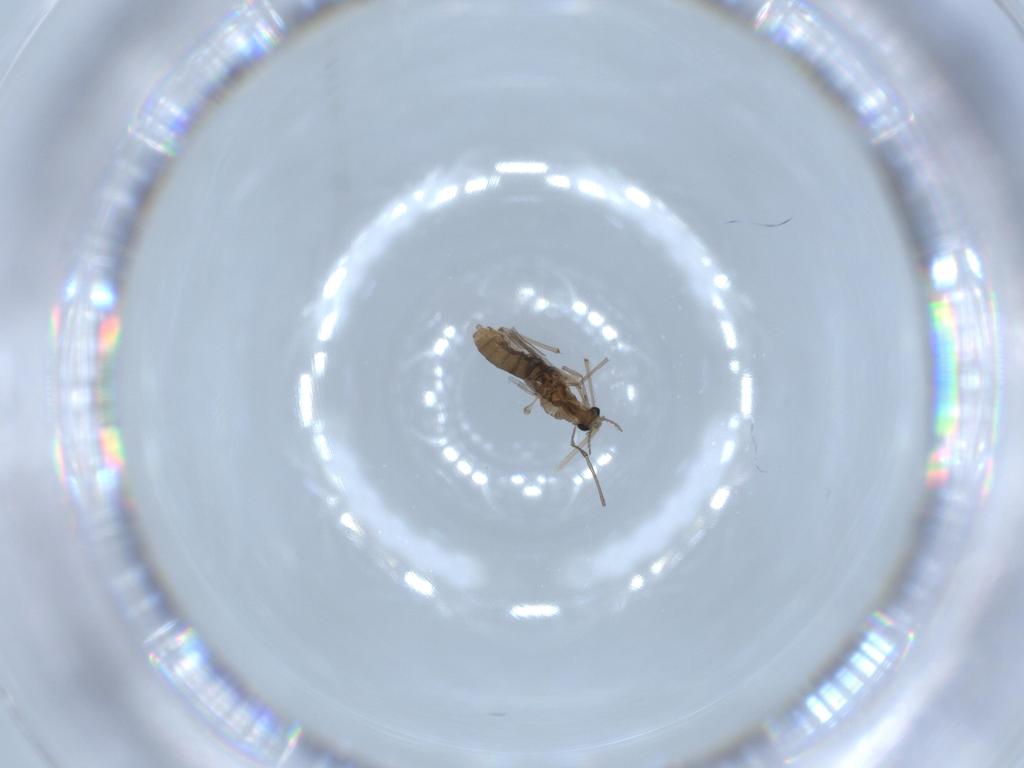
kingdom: Animalia
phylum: Arthropoda
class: Insecta
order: Diptera
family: Chironomidae
